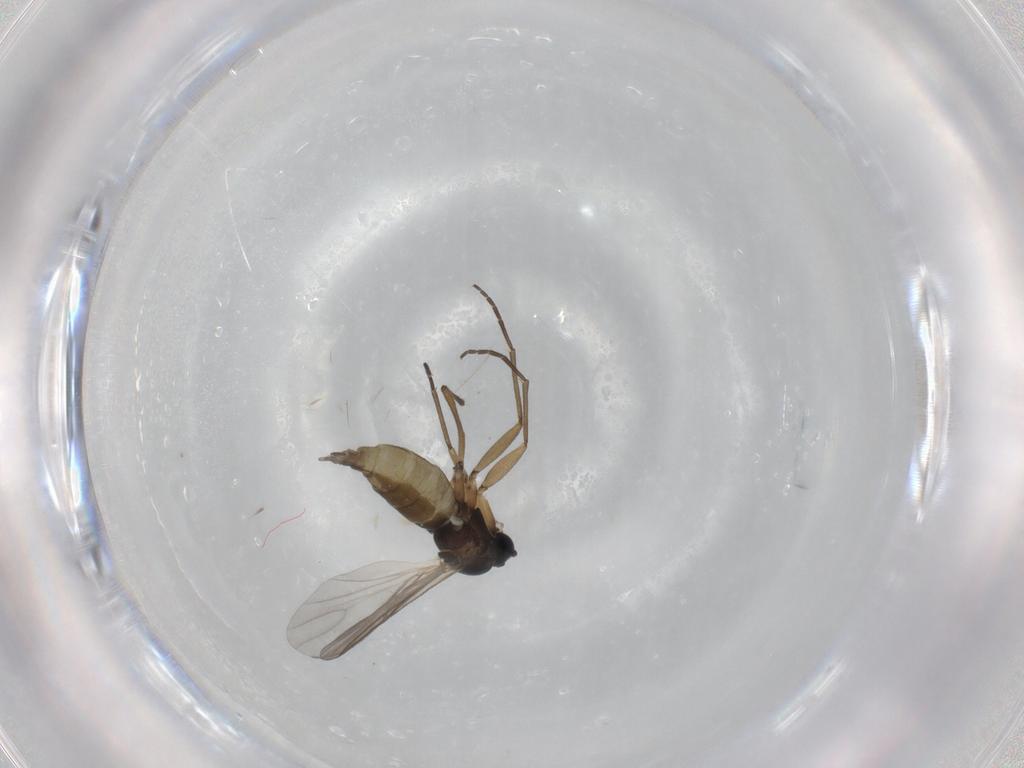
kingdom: Animalia
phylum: Arthropoda
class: Insecta
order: Diptera
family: Sciaridae
